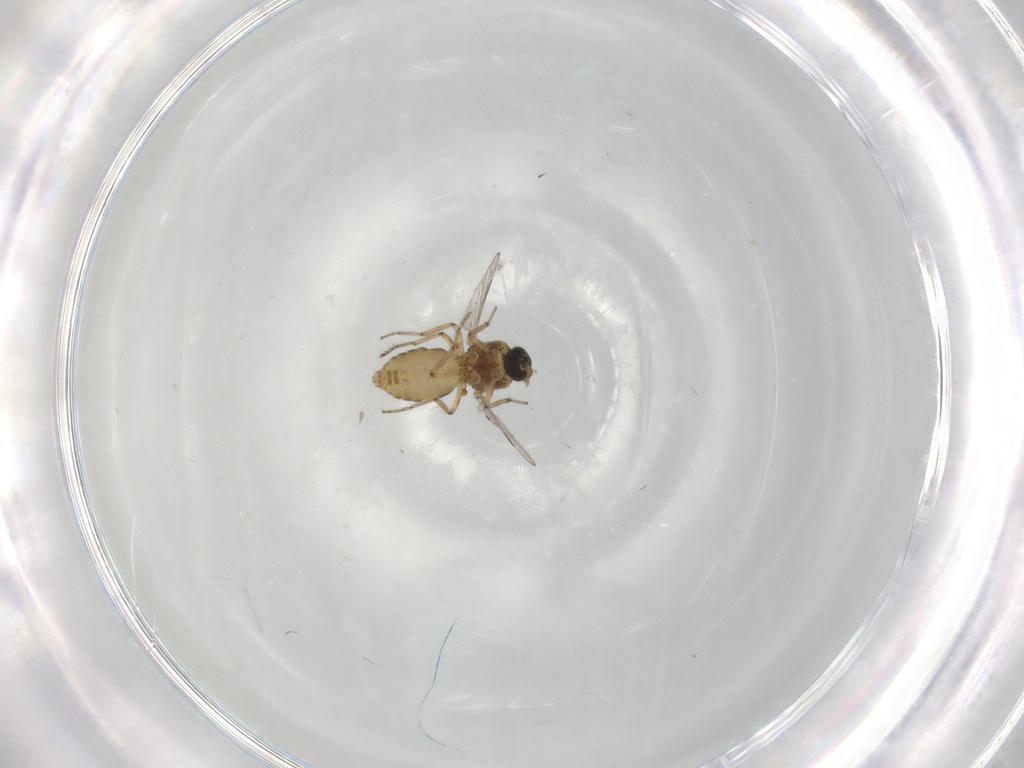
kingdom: Animalia
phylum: Arthropoda
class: Insecta
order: Diptera
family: Ceratopogonidae
